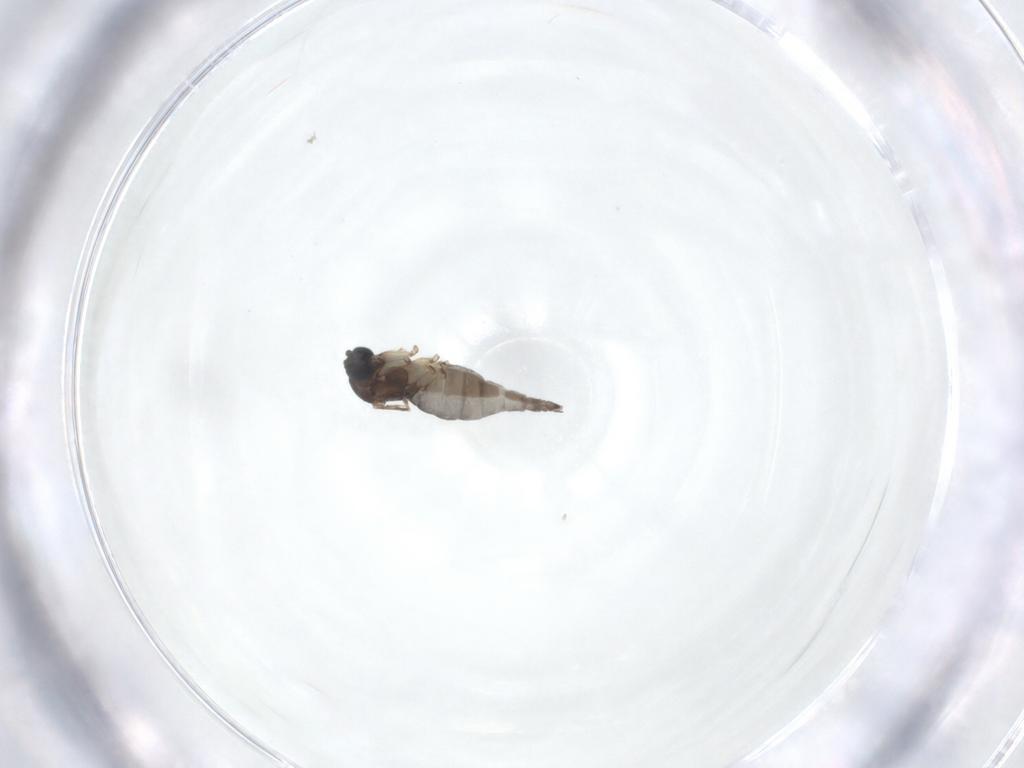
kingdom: Animalia
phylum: Arthropoda
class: Insecta
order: Diptera
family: Sciaridae
